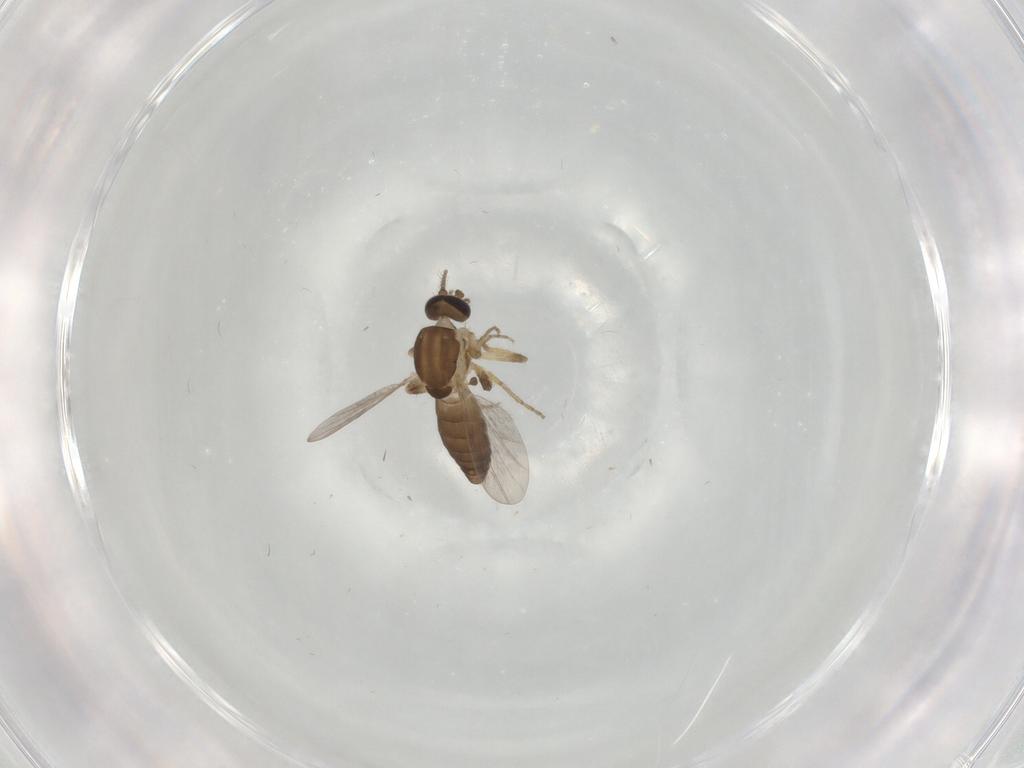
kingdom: Animalia
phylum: Arthropoda
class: Insecta
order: Diptera
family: Ceratopogonidae
